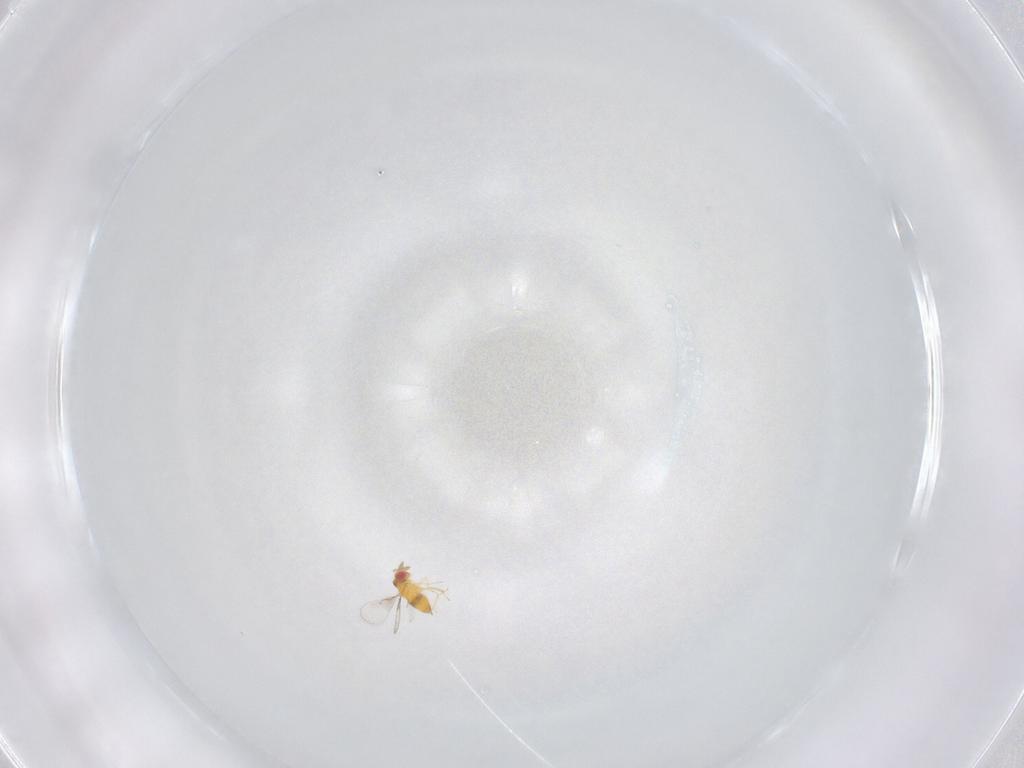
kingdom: Animalia
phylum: Arthropoda
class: Insecta
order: Hymenoptera
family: Trichogrammatidae
